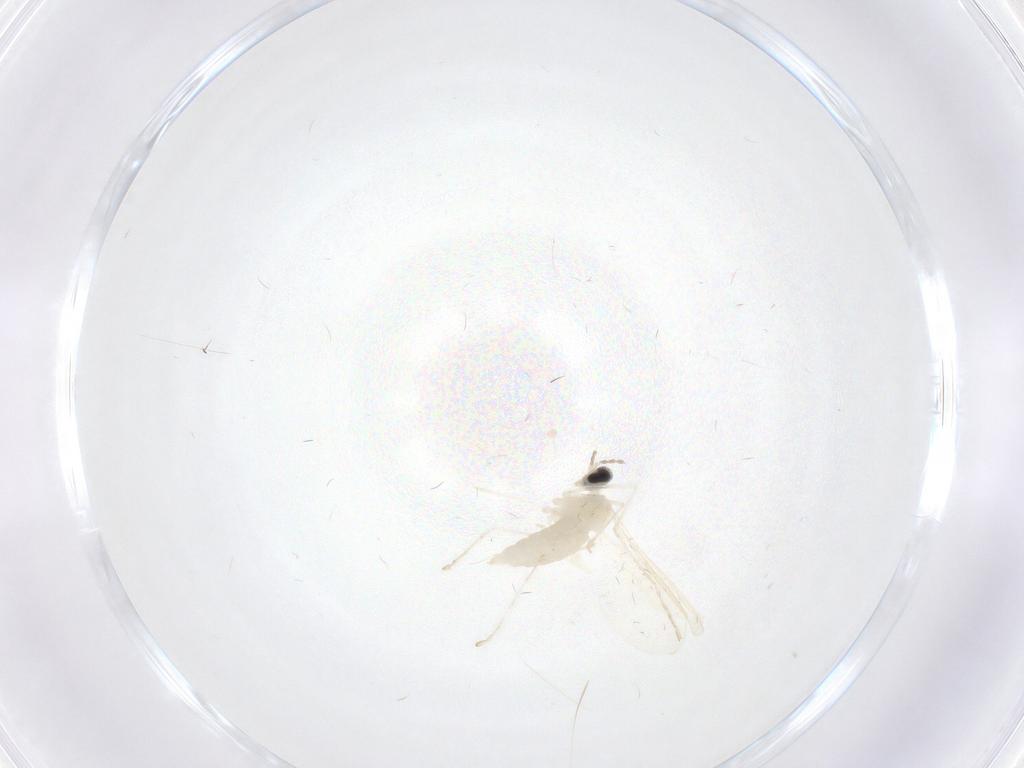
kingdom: Animalia
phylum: Arthropoda
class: Insecta
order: Diptera
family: Cecidomyiidae
